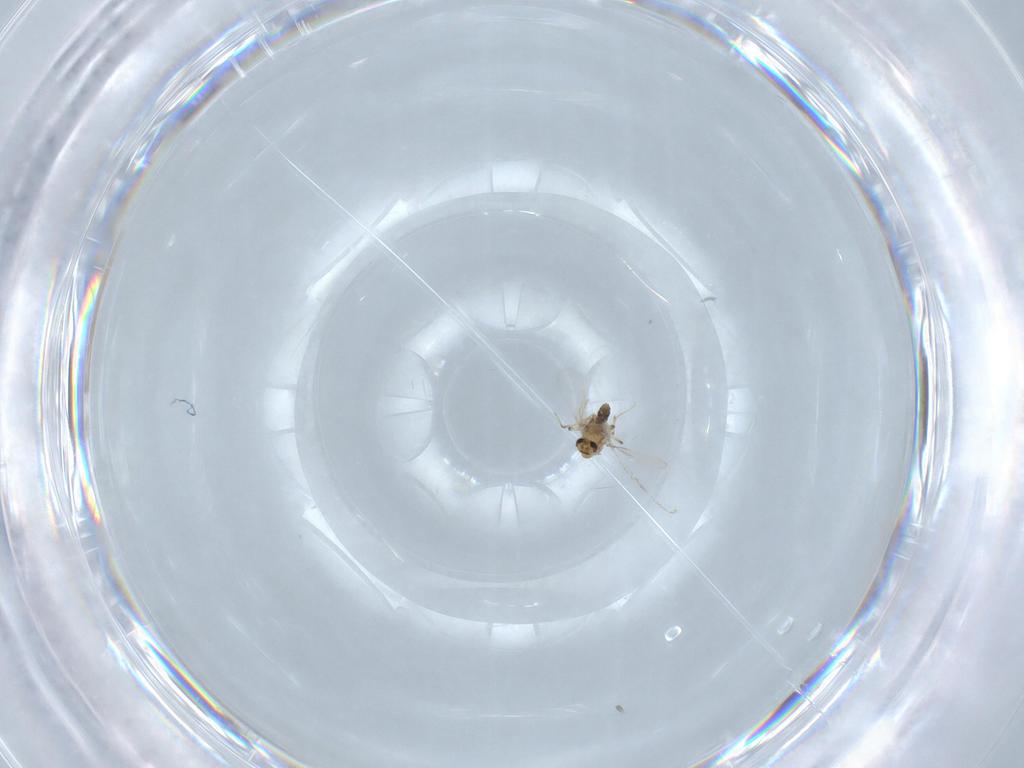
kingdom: Animalia
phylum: Arthropoda
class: Insecta
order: Diptera
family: Chironomidae
